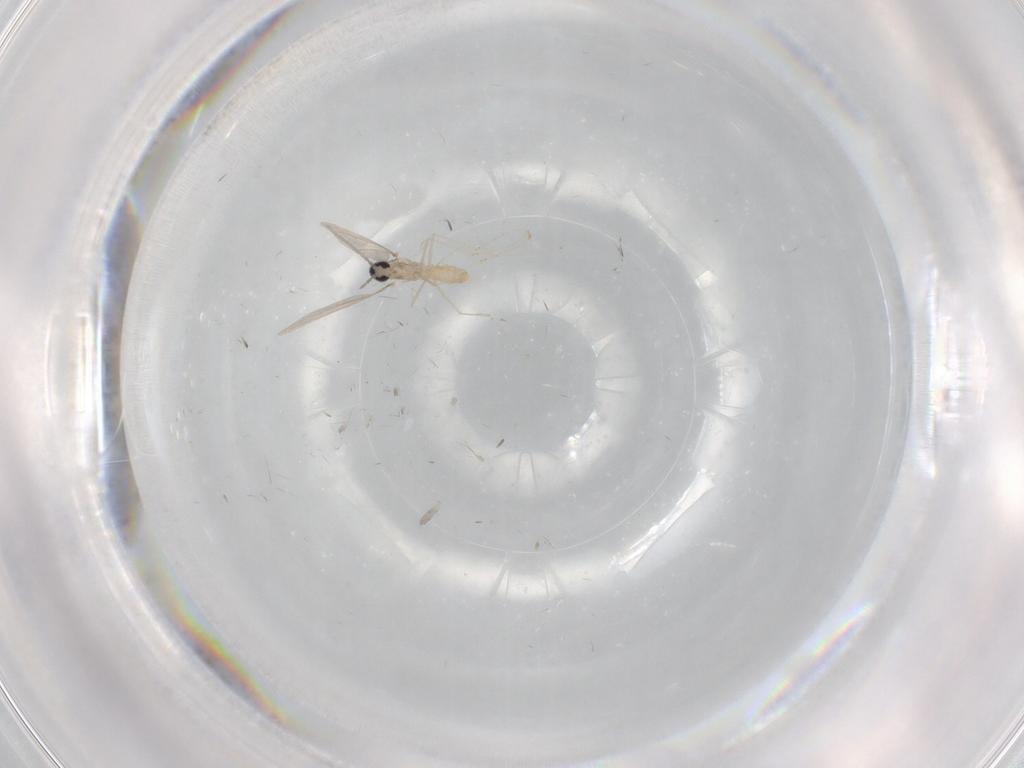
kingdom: Animalia
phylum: Arthropoda
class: Insecta
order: Diptera
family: Cecidomyiidae
